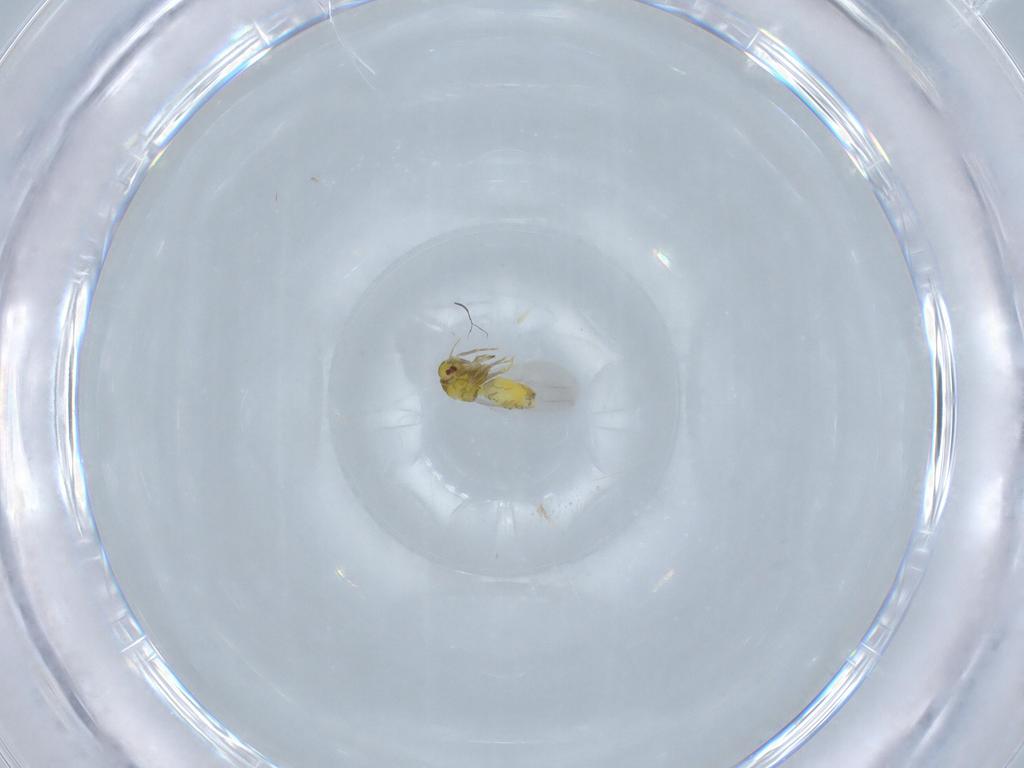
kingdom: Animalia
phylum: Arthropoda
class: Insecta
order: Hemiptera
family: Aleyrodidae
